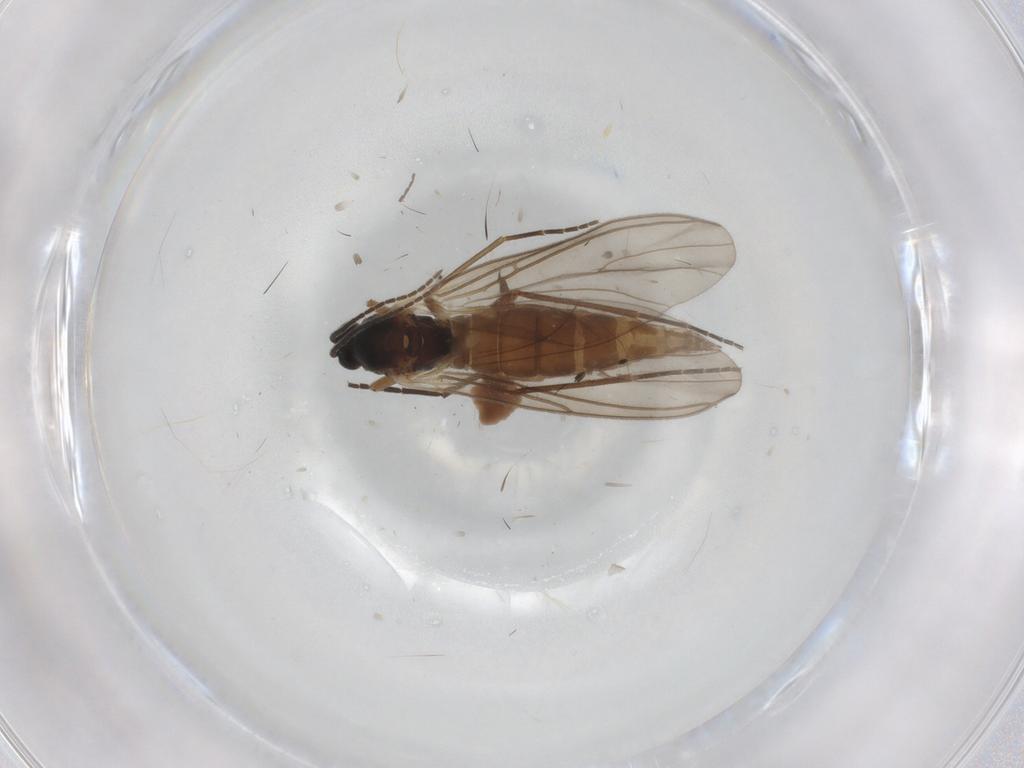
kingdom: Animalia
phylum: Arthropoda
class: Insecta
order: Diptera
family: Sciaridae
